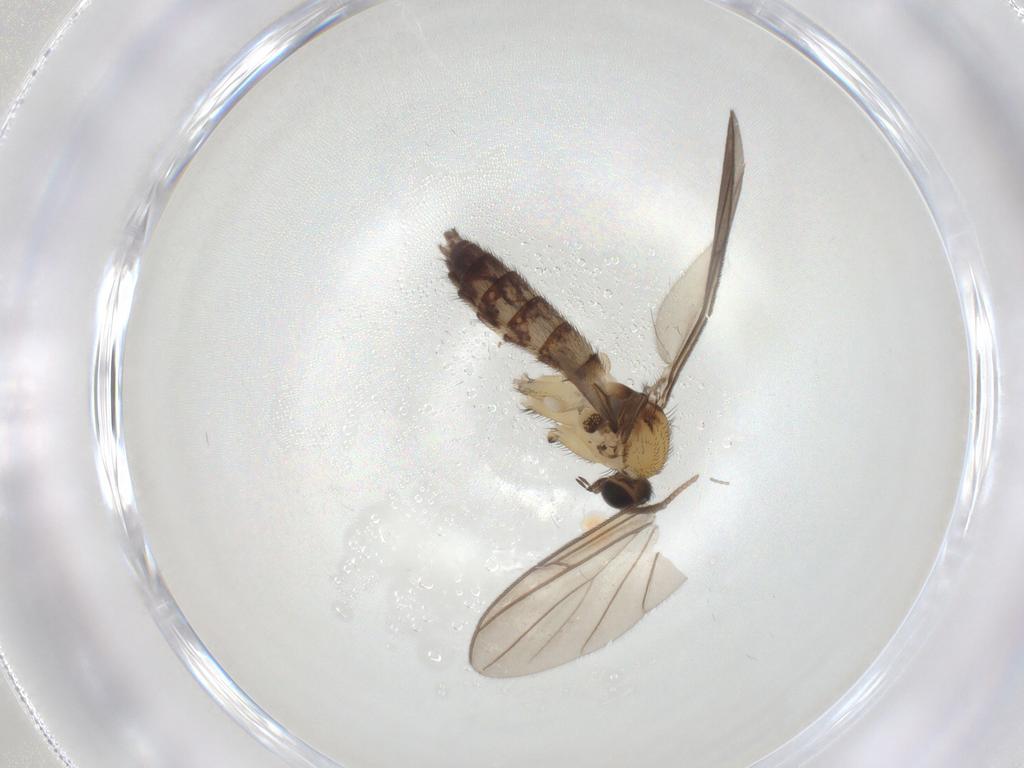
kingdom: Animalia
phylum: Arthropoda
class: Insecta
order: Diptera
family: Keroplatidae
